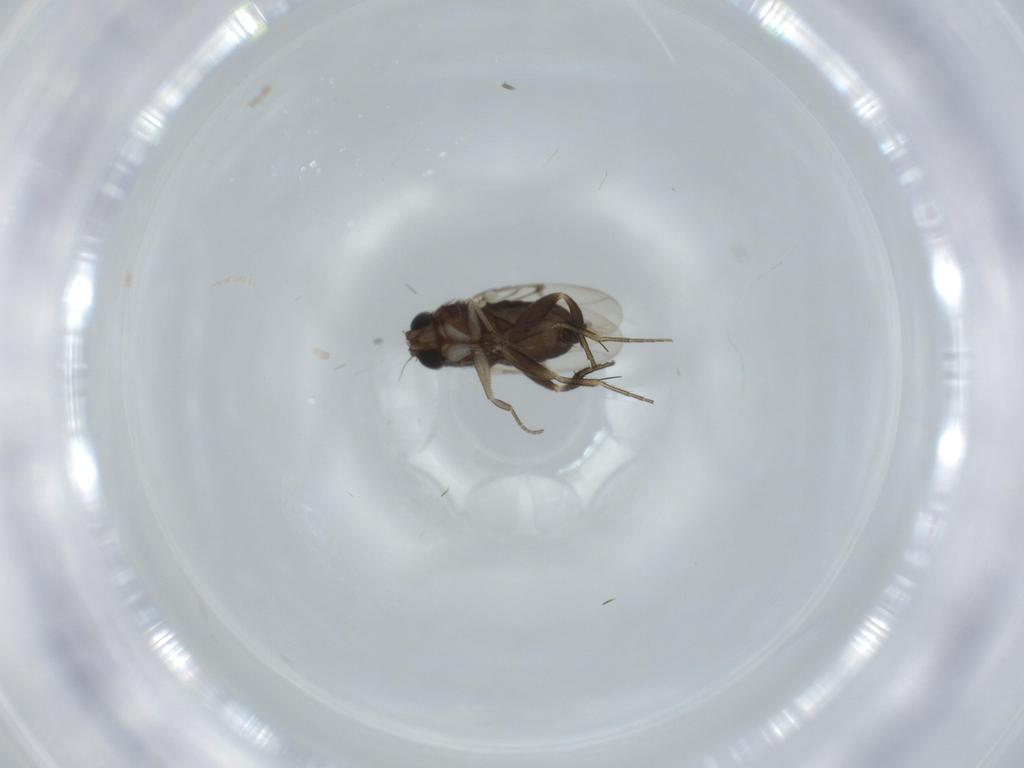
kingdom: Animalia
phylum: Arthropoda
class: Insecta
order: Diptera
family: Phoridae
